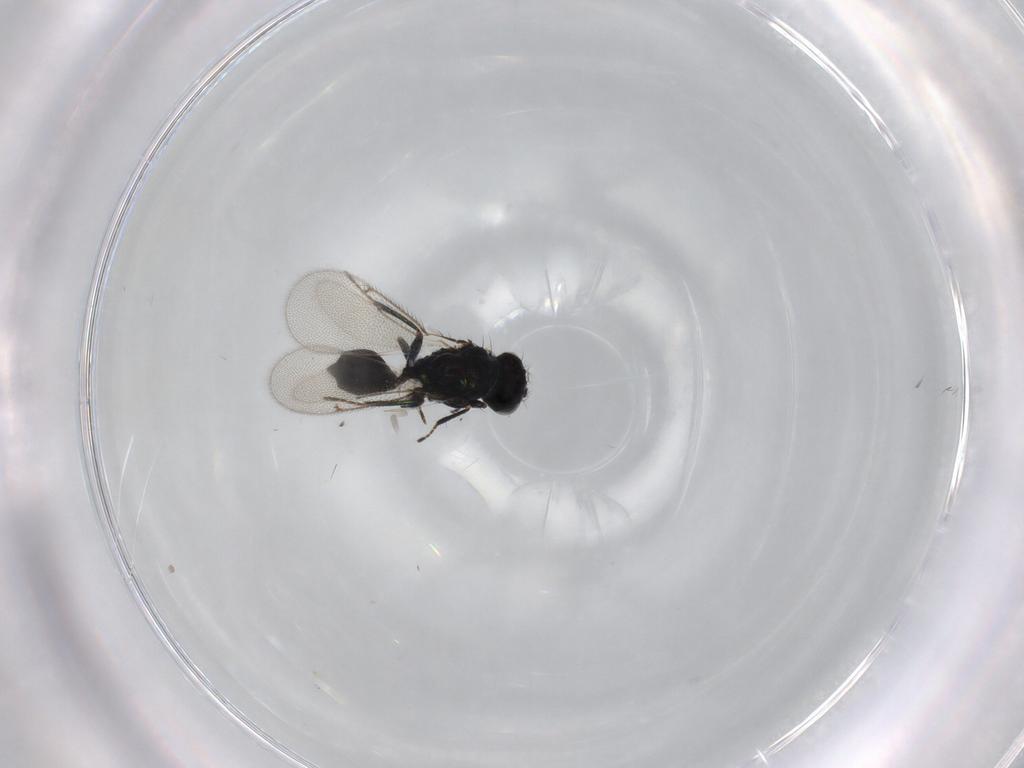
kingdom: Animalia
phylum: Arthropoda
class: Insecta
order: Hymenoptera
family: Eulophidae
